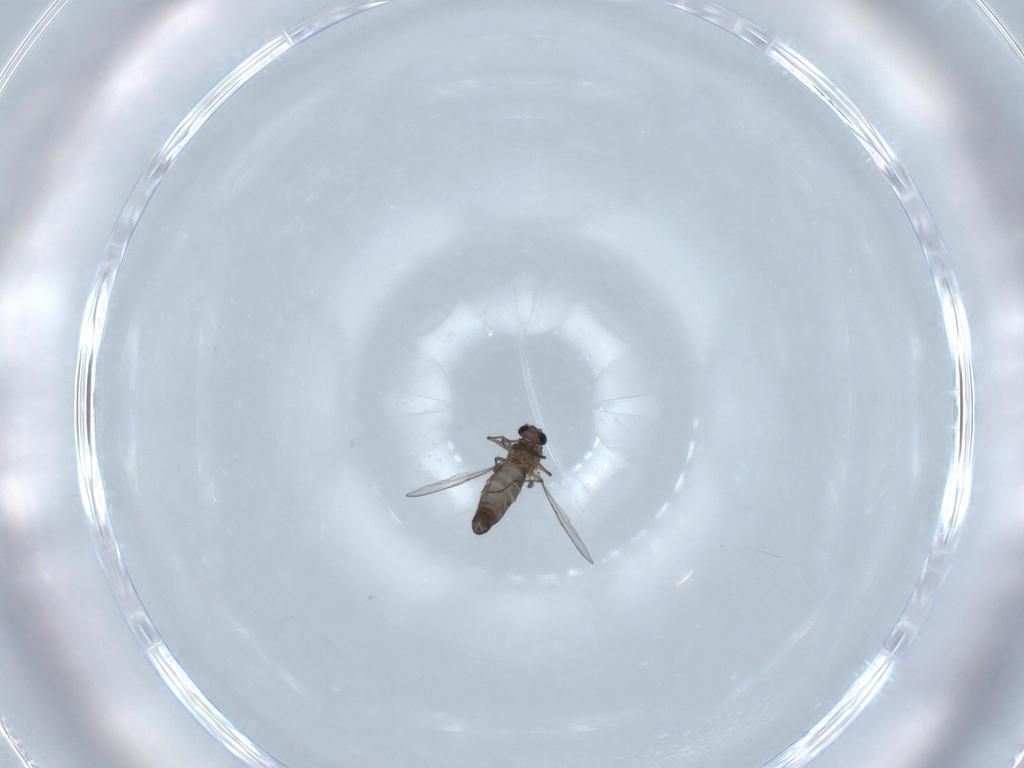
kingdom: Animalia
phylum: Arthropoda
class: Insecta
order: Diptera
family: Chironomidae
